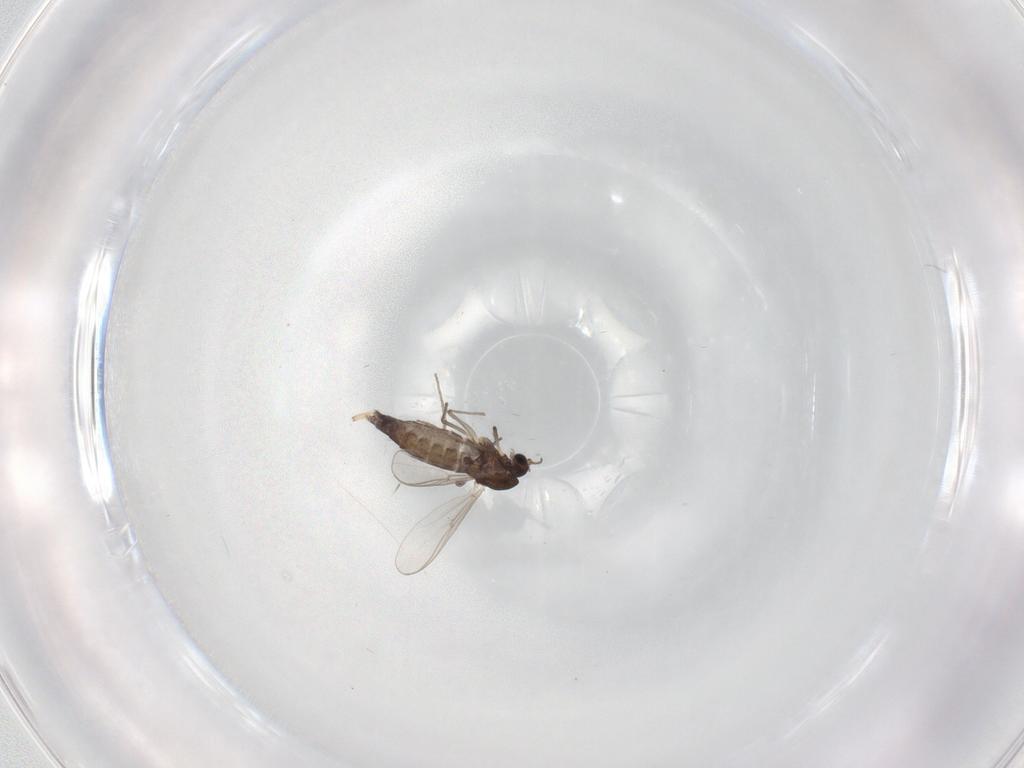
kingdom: Animalia
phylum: Arthropoda
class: Insecta
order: Diptera
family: Chironomidae
